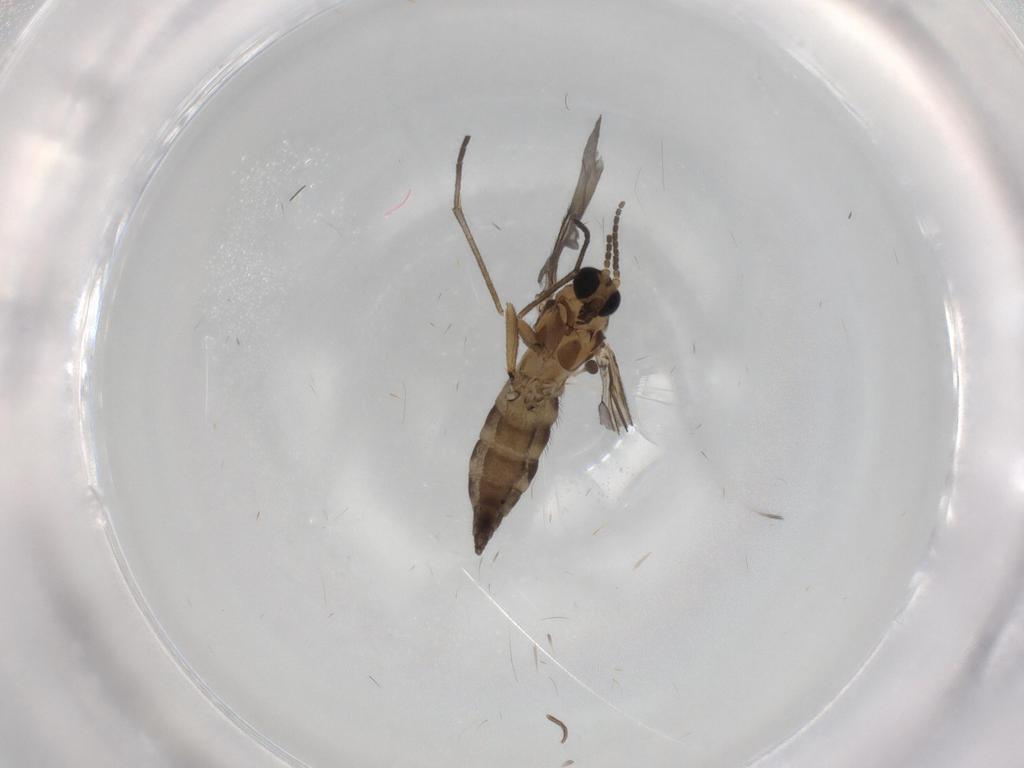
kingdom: Animalia
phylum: Arthropoda
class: Insecta
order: Diptera
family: Sciaridae
